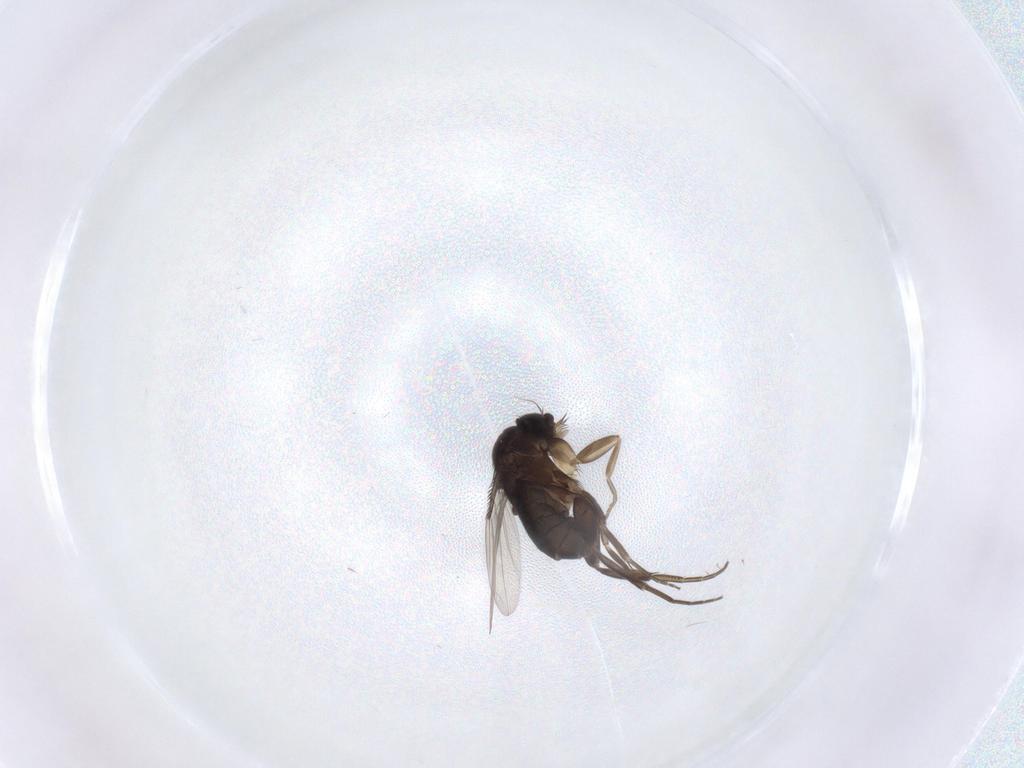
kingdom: Animalia
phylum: Arthropoda
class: Insecta
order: Diptera
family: Phoridae
